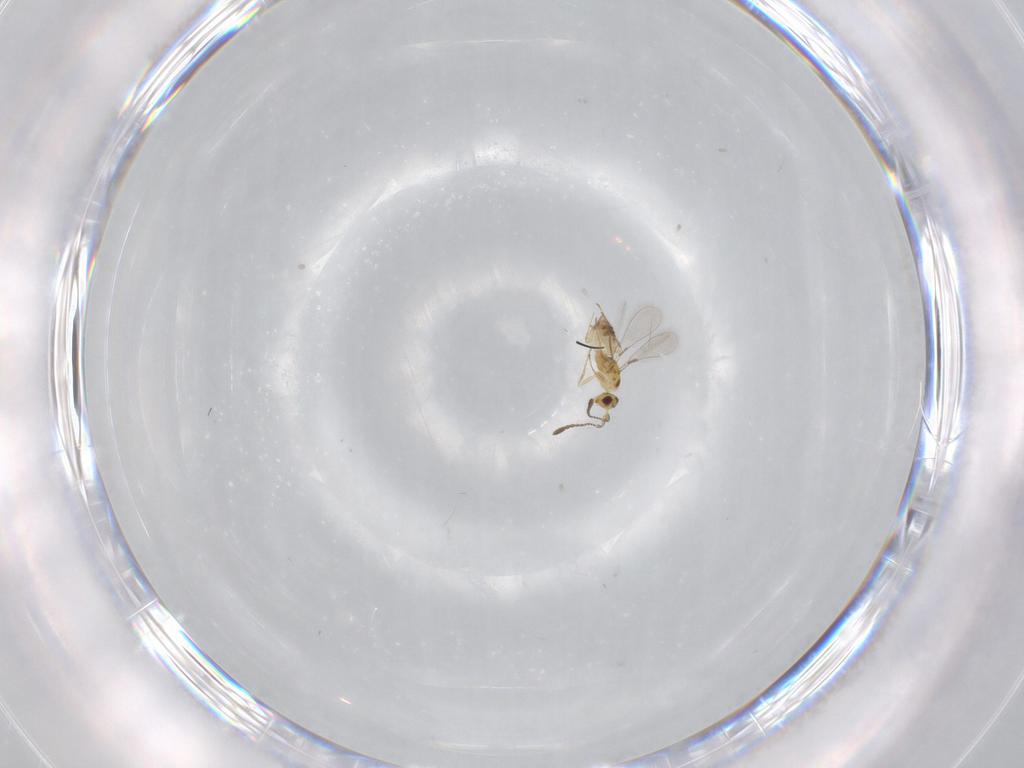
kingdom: Animalia
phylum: Arthropoda
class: Insecta
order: Hymenoptera
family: Mymaridae
